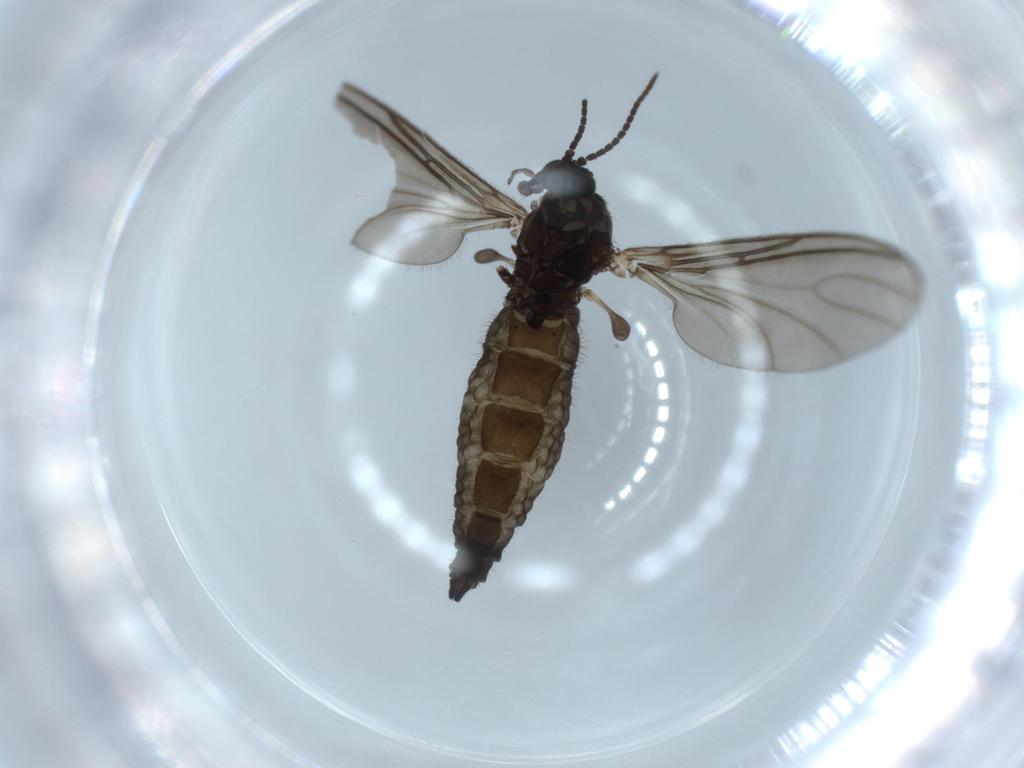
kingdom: Animalia
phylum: Arthropoda
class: Insecta
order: Diptera
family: Sciaridae
